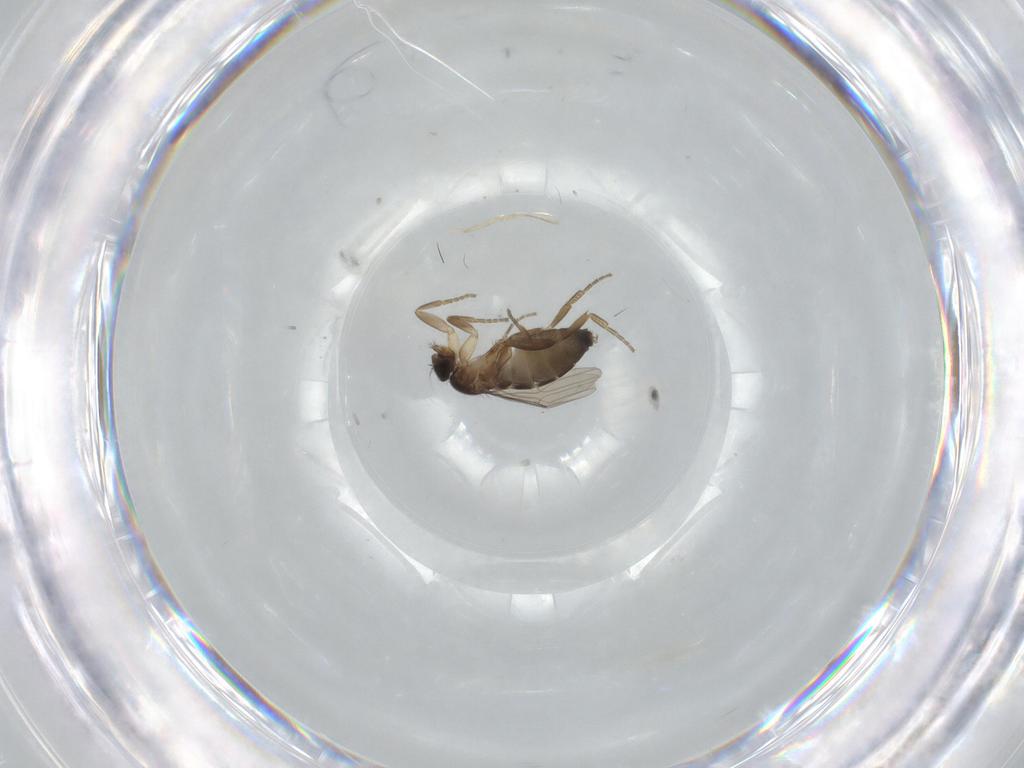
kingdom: Animalia
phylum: Arthropoda
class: Insecta
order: Diptera
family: Phoridae
